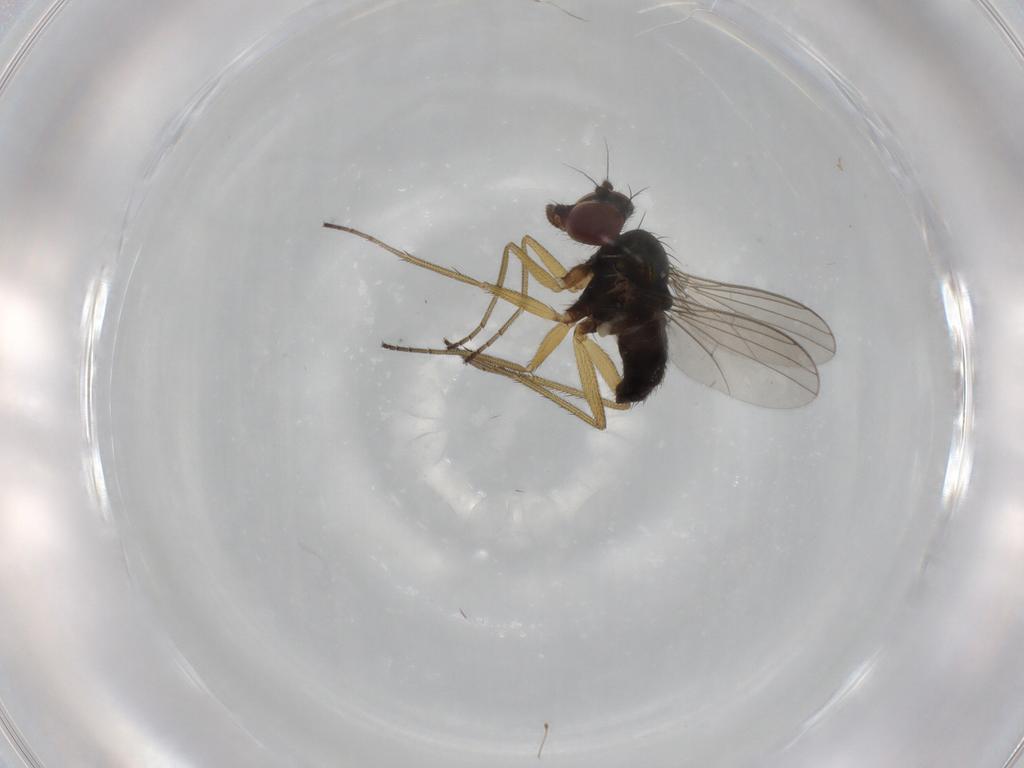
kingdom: Animalia
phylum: Arthropoda
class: Insecta
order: Diptera
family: Dolichopodidae
